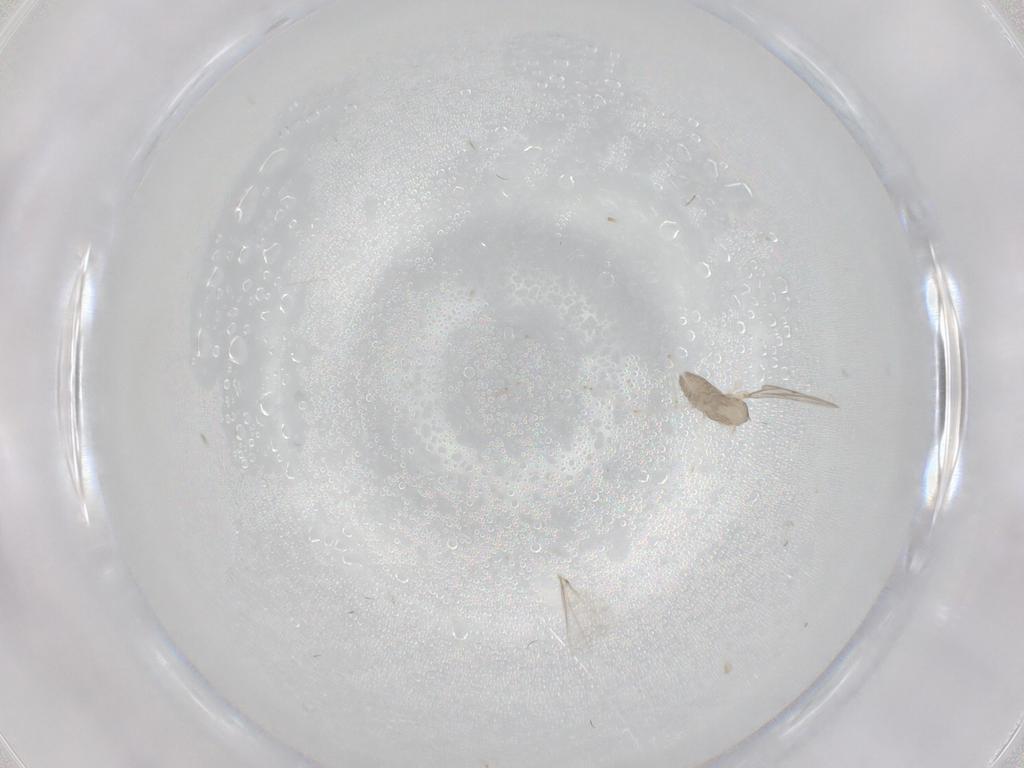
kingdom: Animalia
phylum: Arthropoda
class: Insecta
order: Diptera
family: Cecidomyiidae
